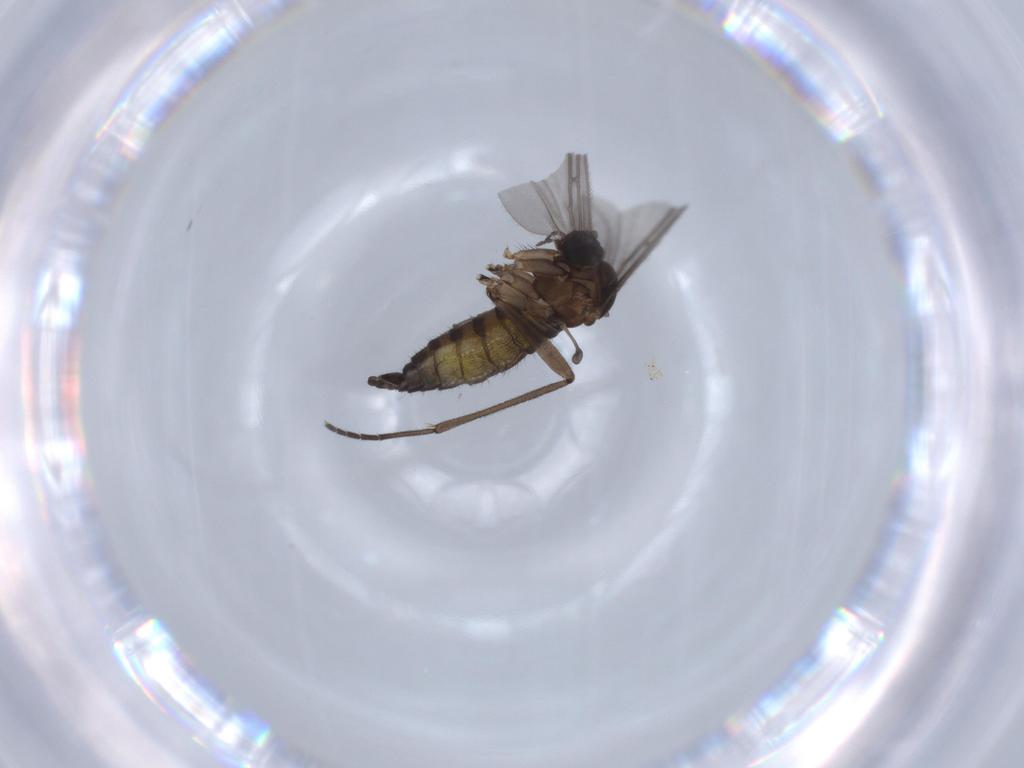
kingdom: Animalia
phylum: Arthropoda
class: Insecta
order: Diptera
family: Sciaridae
